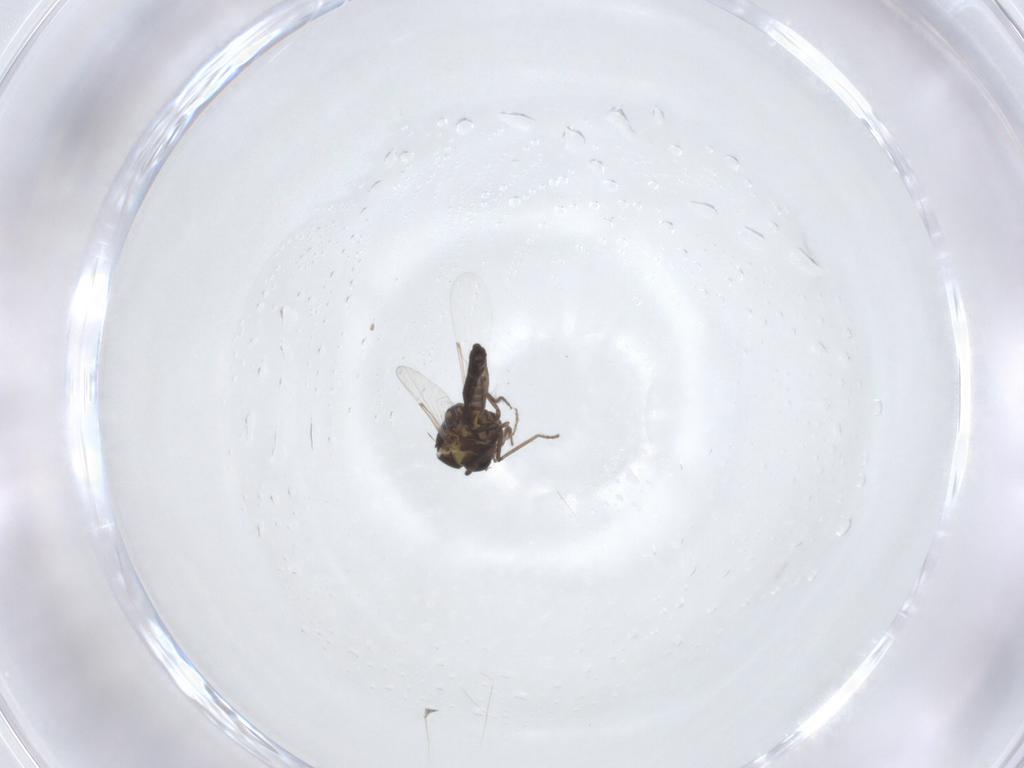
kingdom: Animalia
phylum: Arthropoda
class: Insecta
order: Diptera
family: Ceratopogonidae
